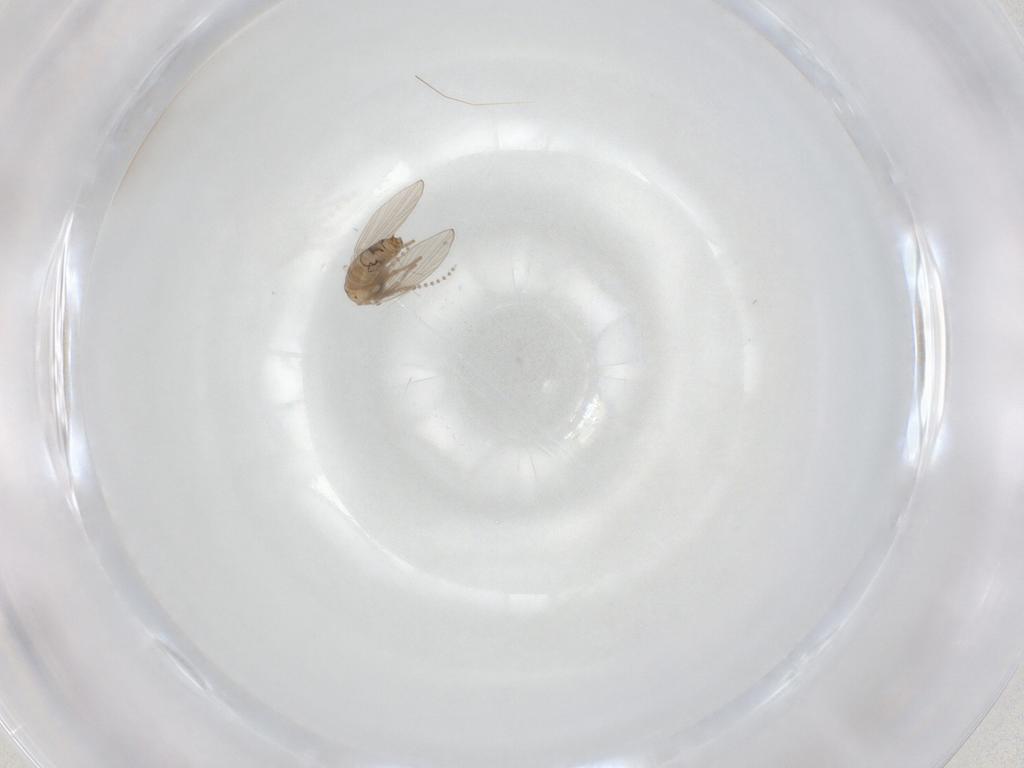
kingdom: Animalia
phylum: Arthropoda
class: Insecta
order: Diptera
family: Psychodidae
